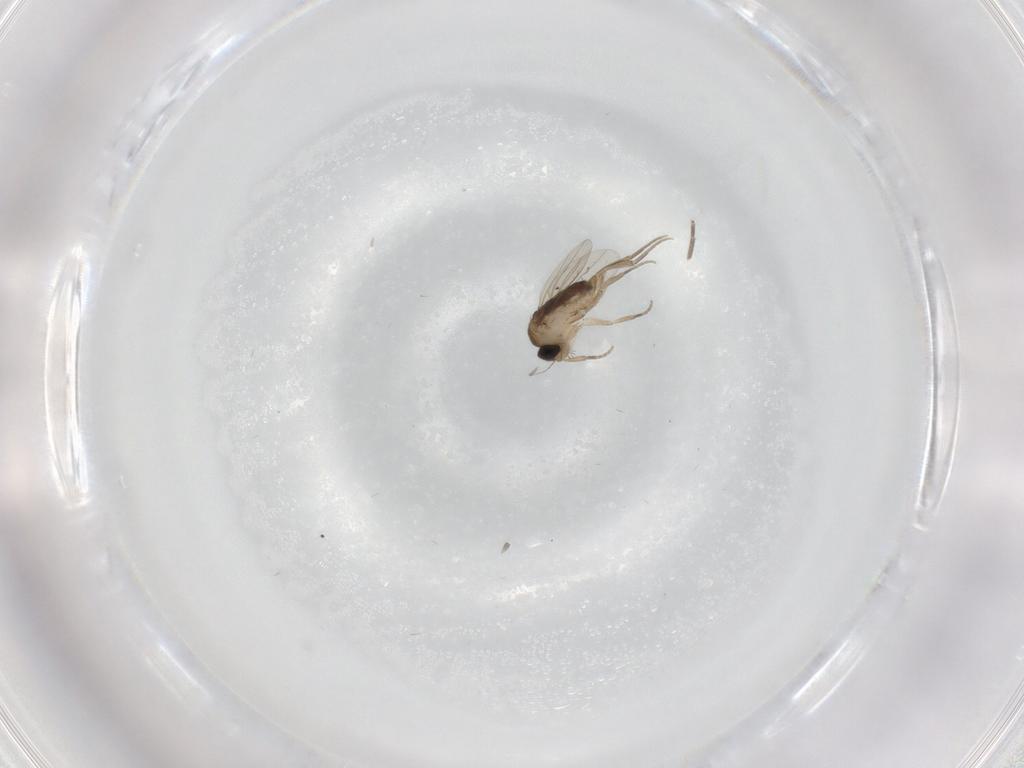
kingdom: Animalia
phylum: Arthropoda
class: Insecta
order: Diptera
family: Phoridae
